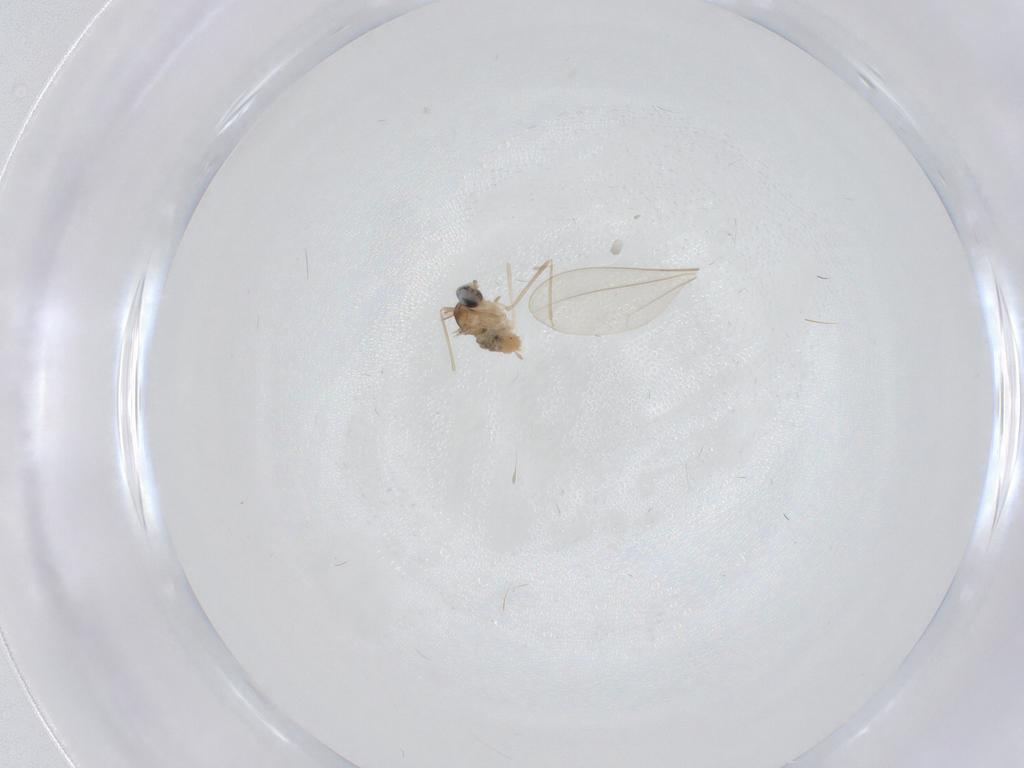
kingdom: Animalia
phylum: Arthropoda
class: Insecta
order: Diptera
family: Cecidomyiidae
